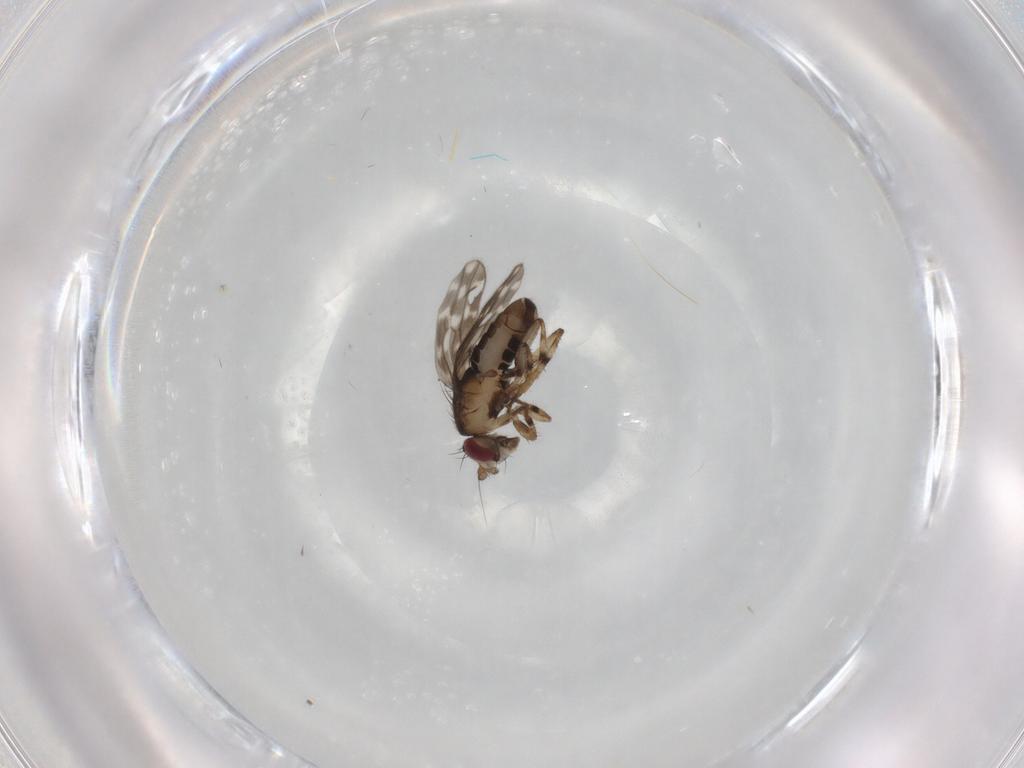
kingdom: Animalia
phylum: Arthropoda
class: Insecta
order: Diptera
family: Sphaeroceridae
